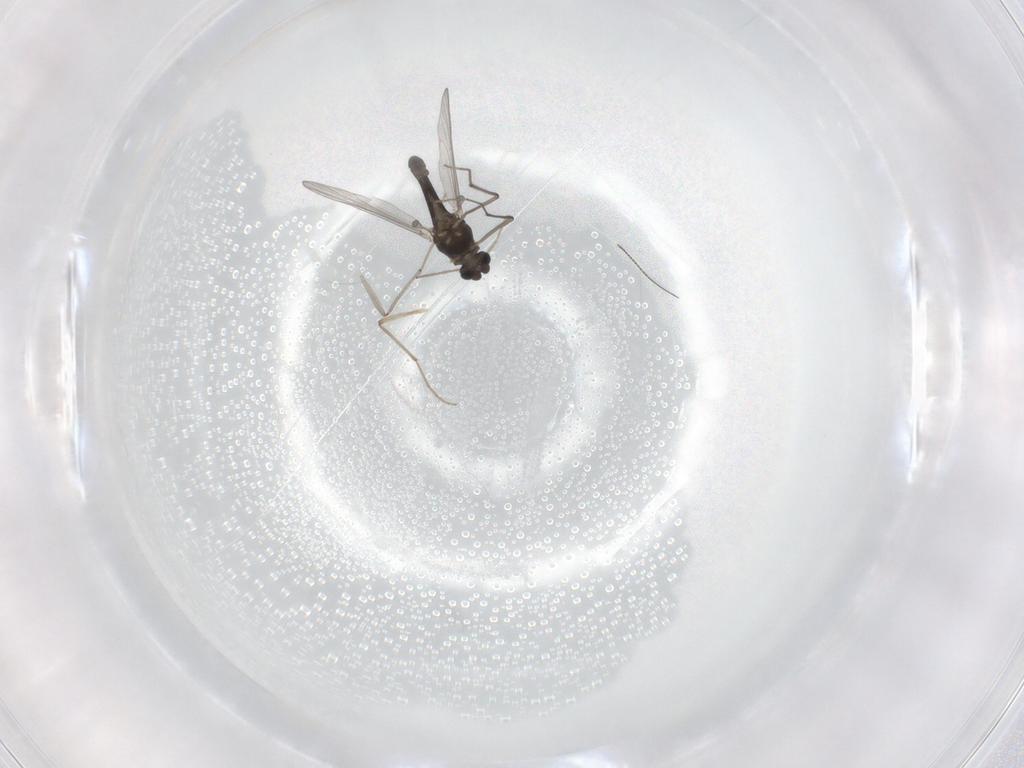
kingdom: Animalia
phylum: Arthropoda
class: Insecta
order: Diptera
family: Chironomidae
